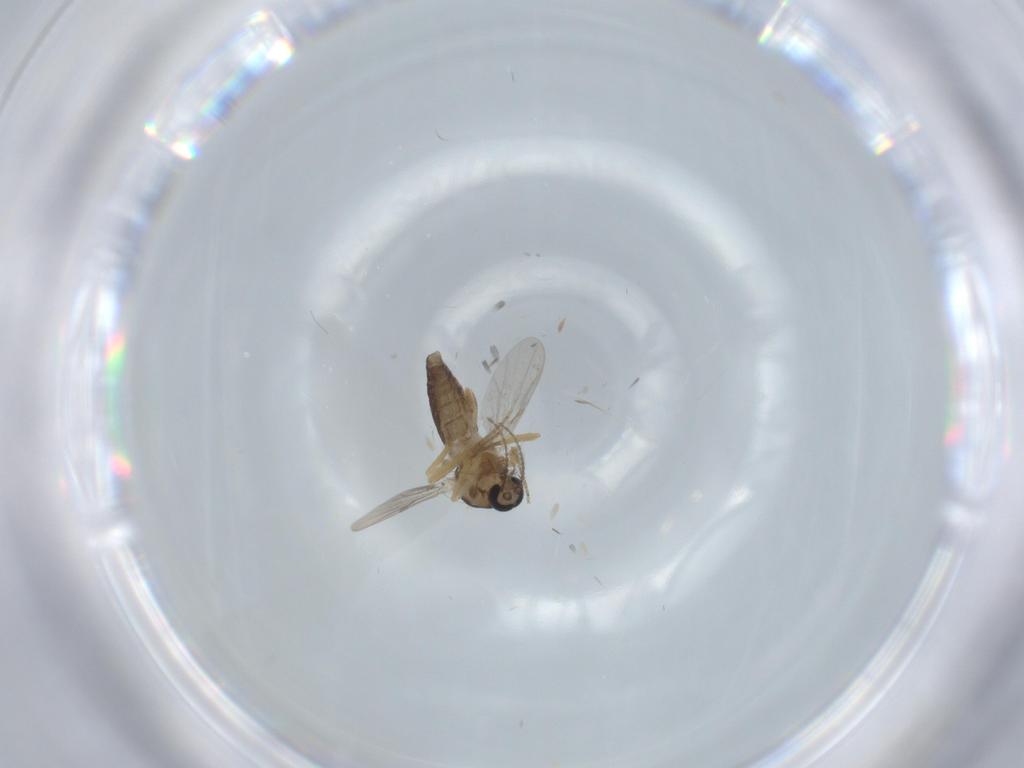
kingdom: Animalia
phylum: Arthropoda
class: Insecta
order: Diptera
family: Ceratopogonidae
